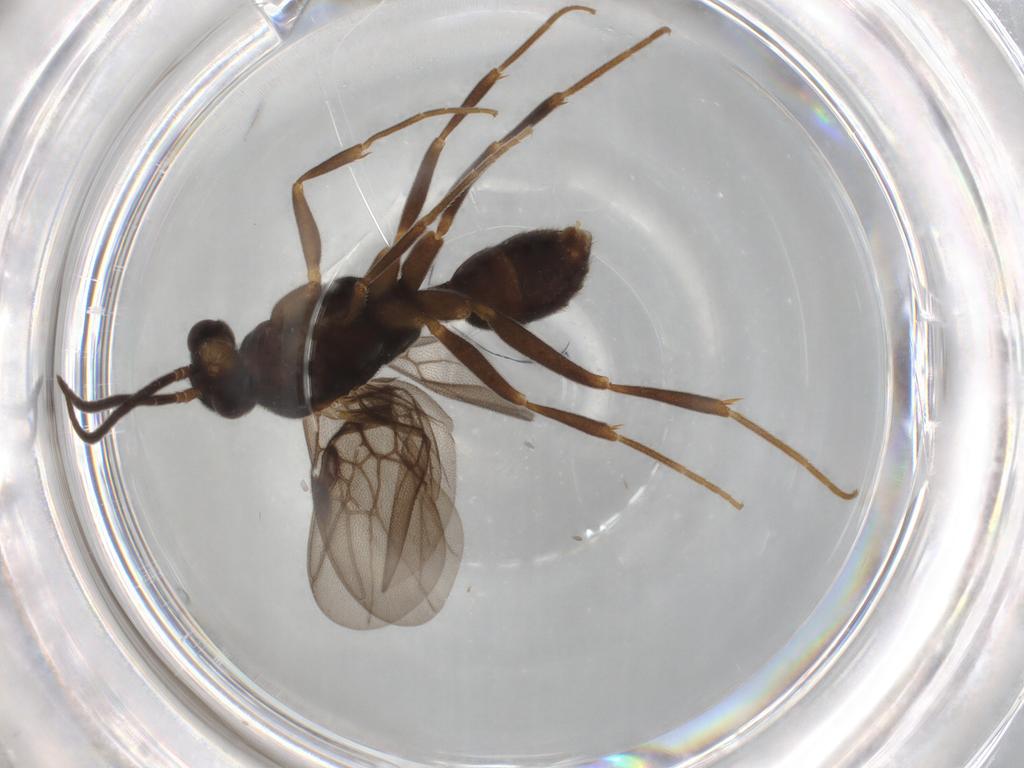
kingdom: Animalia
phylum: Arthropoda
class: Insecta
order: Hymenoptera
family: Formicidae
